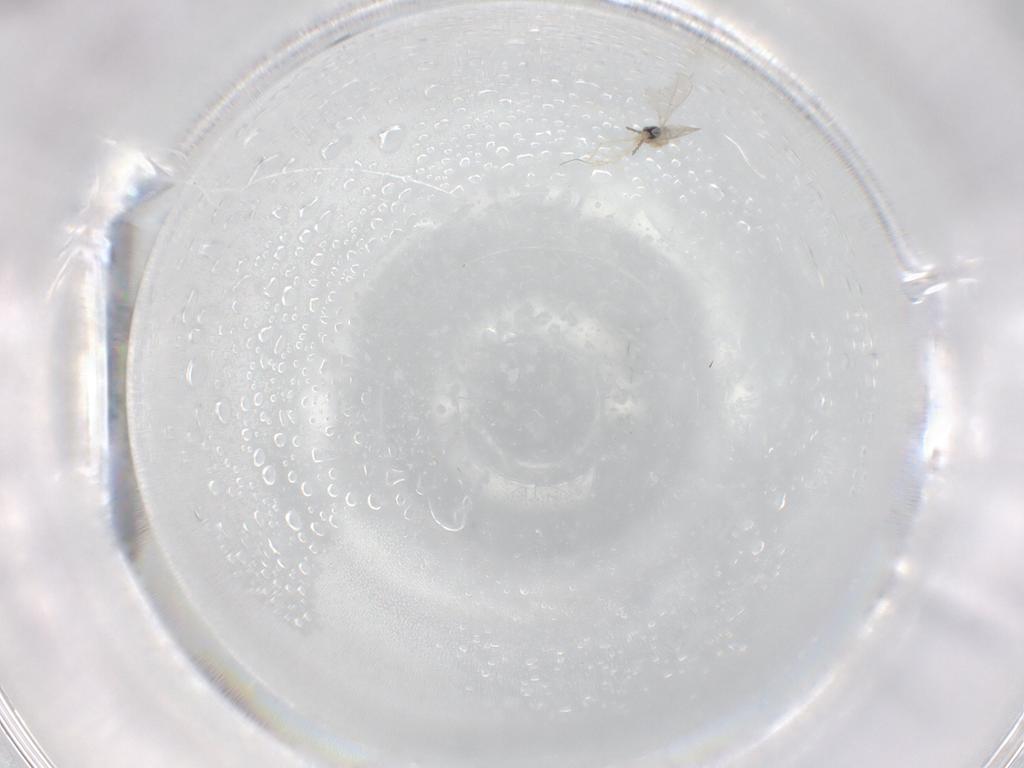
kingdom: Animalia
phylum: Arthropoda
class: Insecta
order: Diptera
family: Cecidomyiidae
